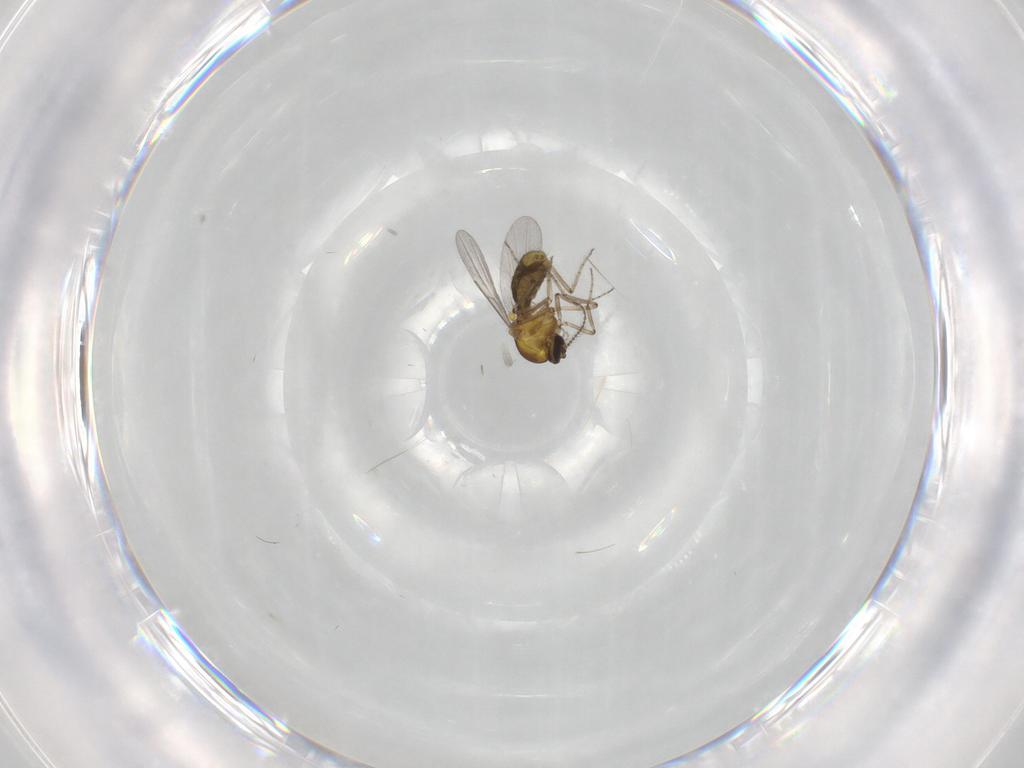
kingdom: Animalia
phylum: Arthropoda
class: Insecta
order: Diptera
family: Ceratopogonidae
